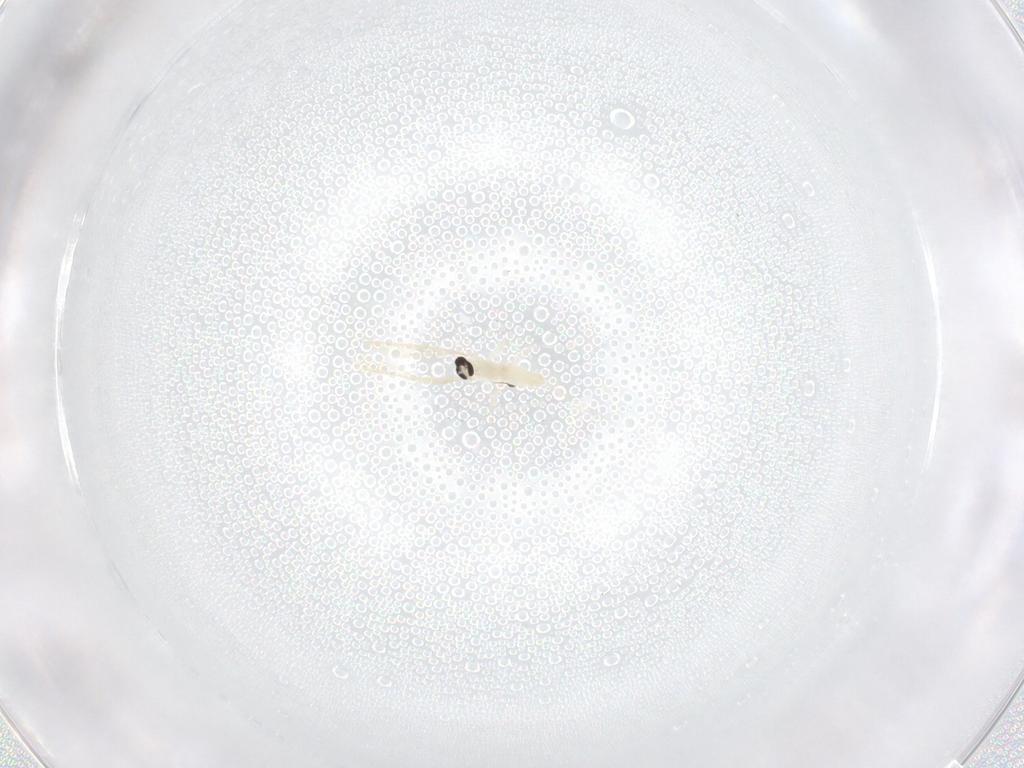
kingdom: Animalia
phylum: Arthropoda
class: Insecta
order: Diptera
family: Cecidomyiidae
